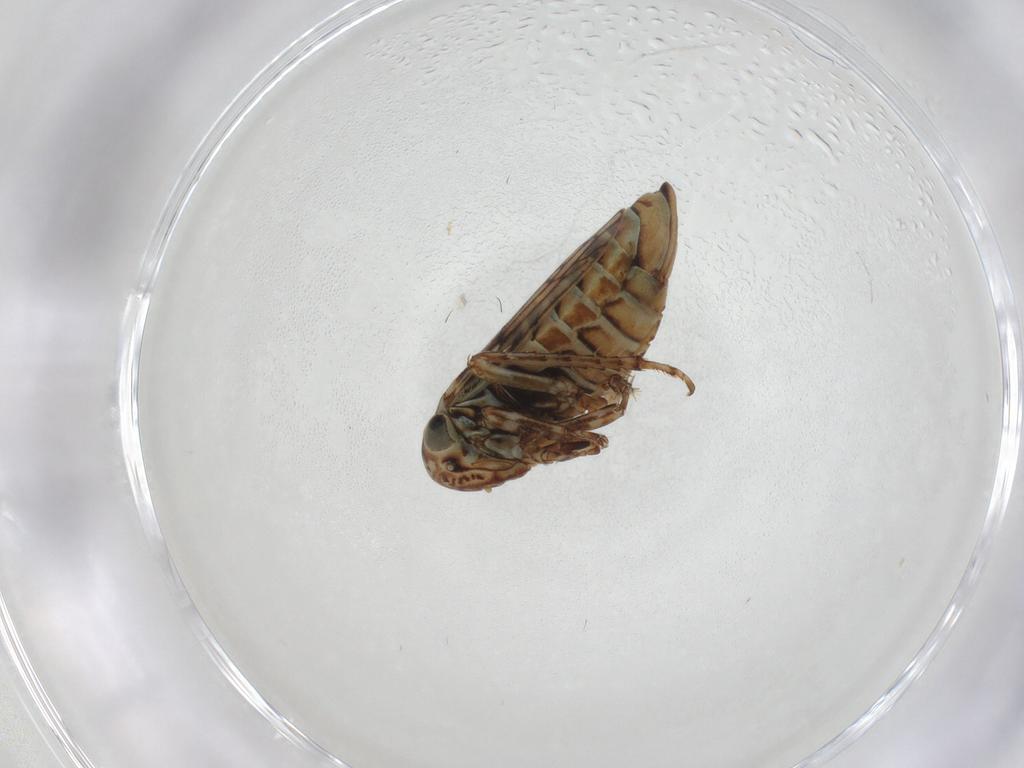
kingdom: Animalia
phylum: Arthropoda
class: Insecta
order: Hemiptera
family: Cicadellidae
